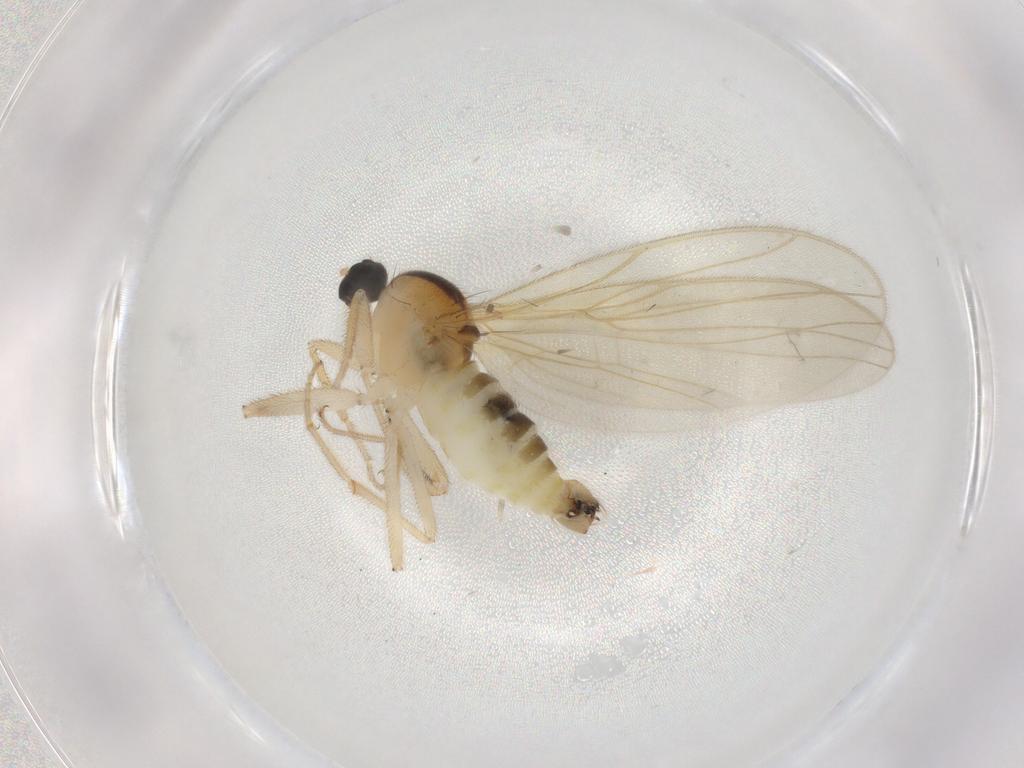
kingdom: Animalia
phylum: Arthropoda
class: Insecta
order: Diptera
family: Hybotidae
